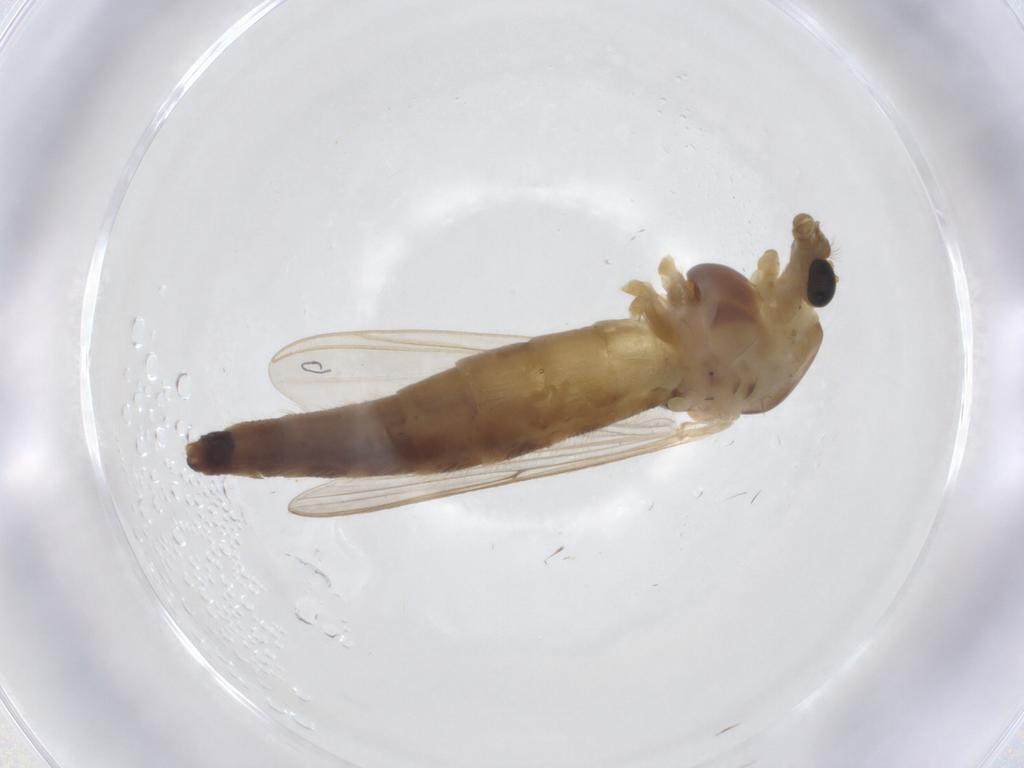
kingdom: Animalia
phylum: Arthropoda
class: Insecta
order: Diptera
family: Chironomidae
